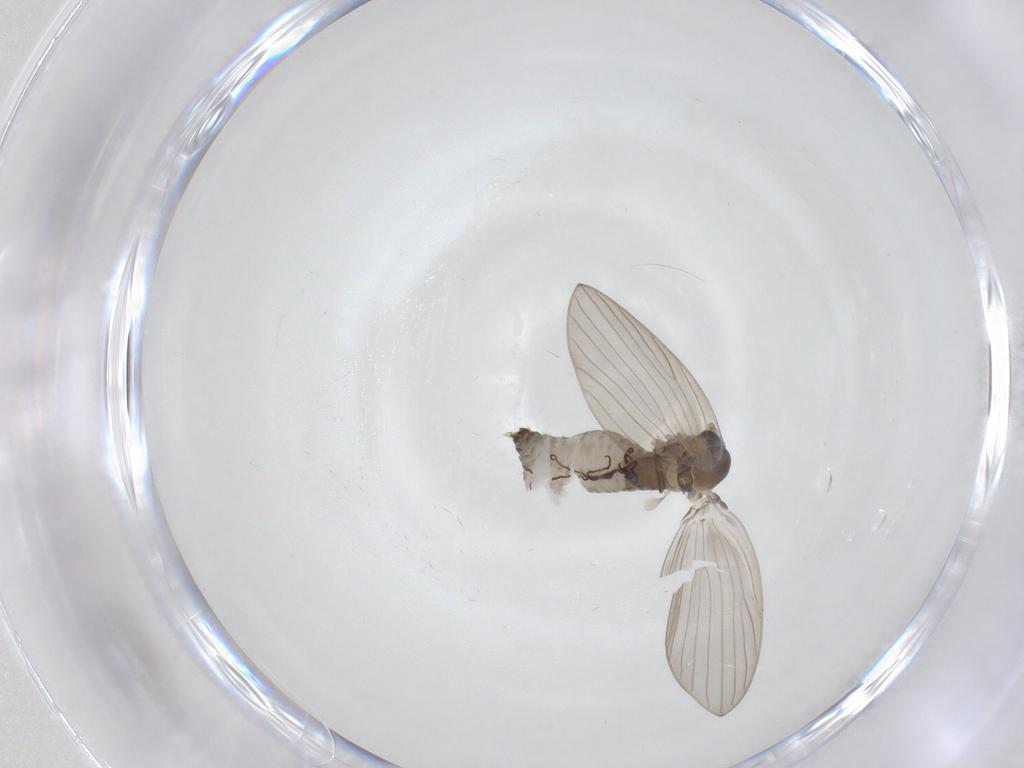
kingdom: Animalia
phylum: Arthropoda
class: Insecta
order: Diptera
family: Psychodidae
